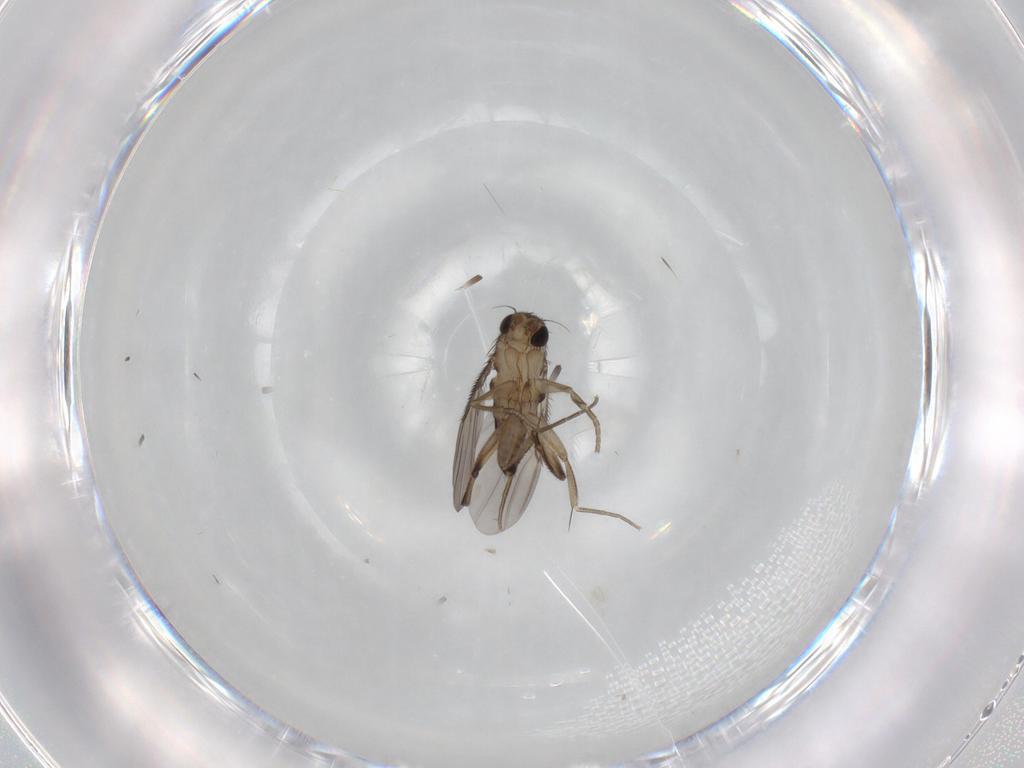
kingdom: Animalia
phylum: Arthropoda
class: Insecta
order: Diptera
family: Phoridae
